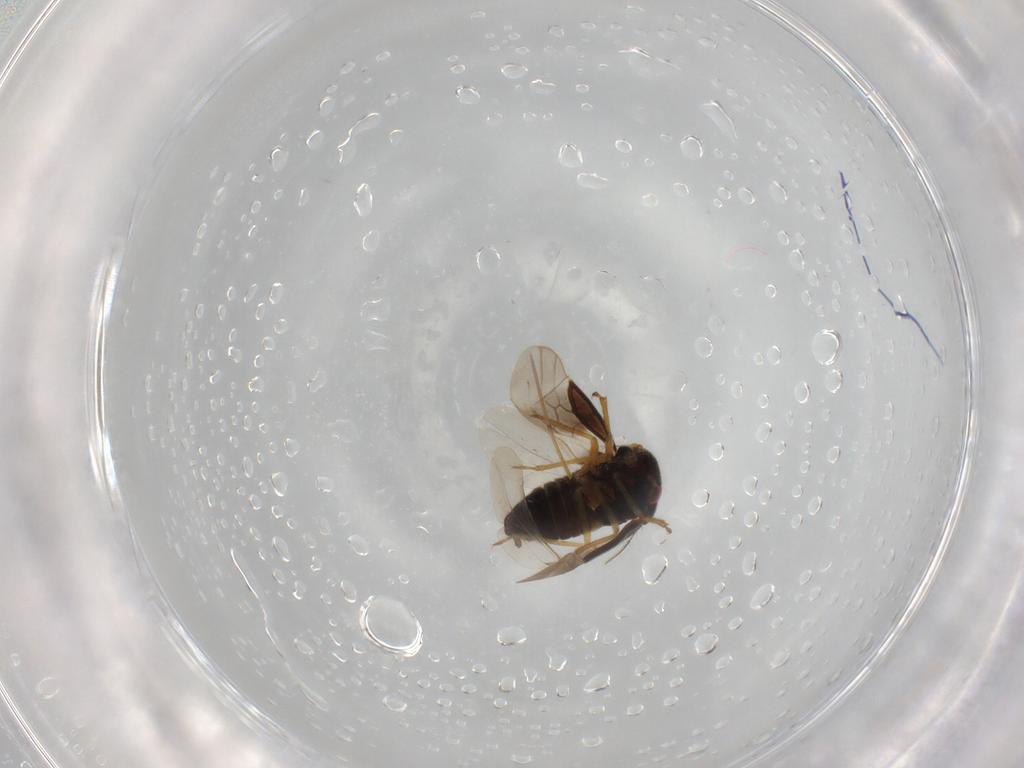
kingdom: Animalia
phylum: Arthropoda
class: Insecta
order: Hemiptera
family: Schizopteridae
